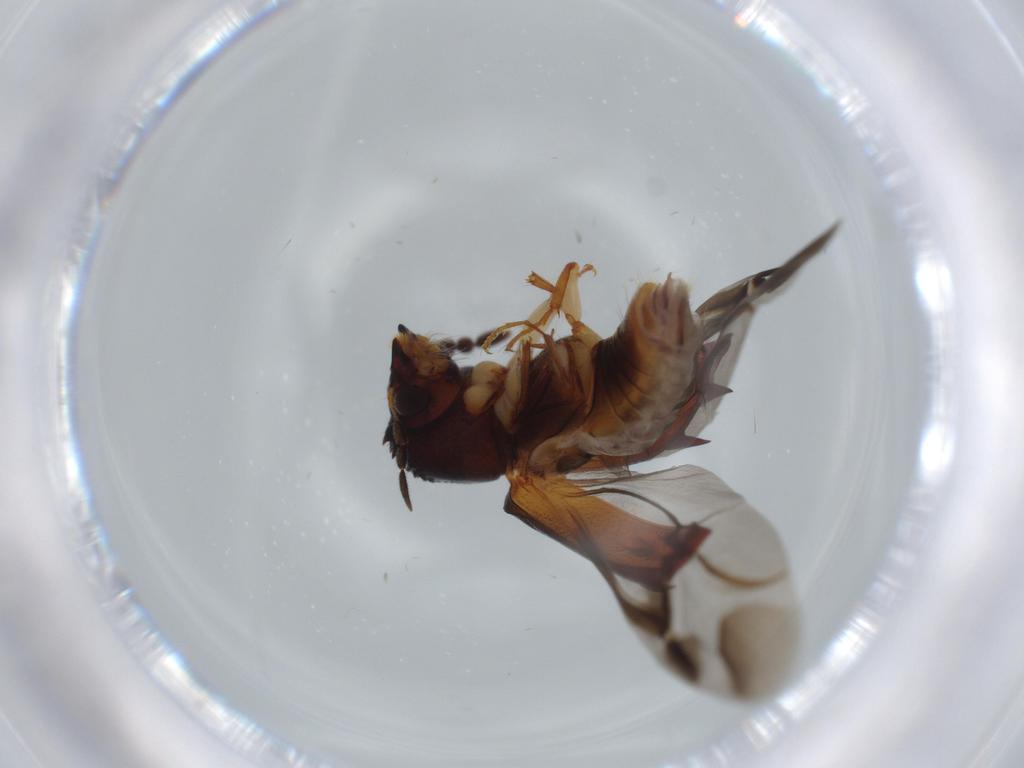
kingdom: Animalia
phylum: Arthropoda
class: Insecta
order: Coleoptera
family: Bostrichidae
